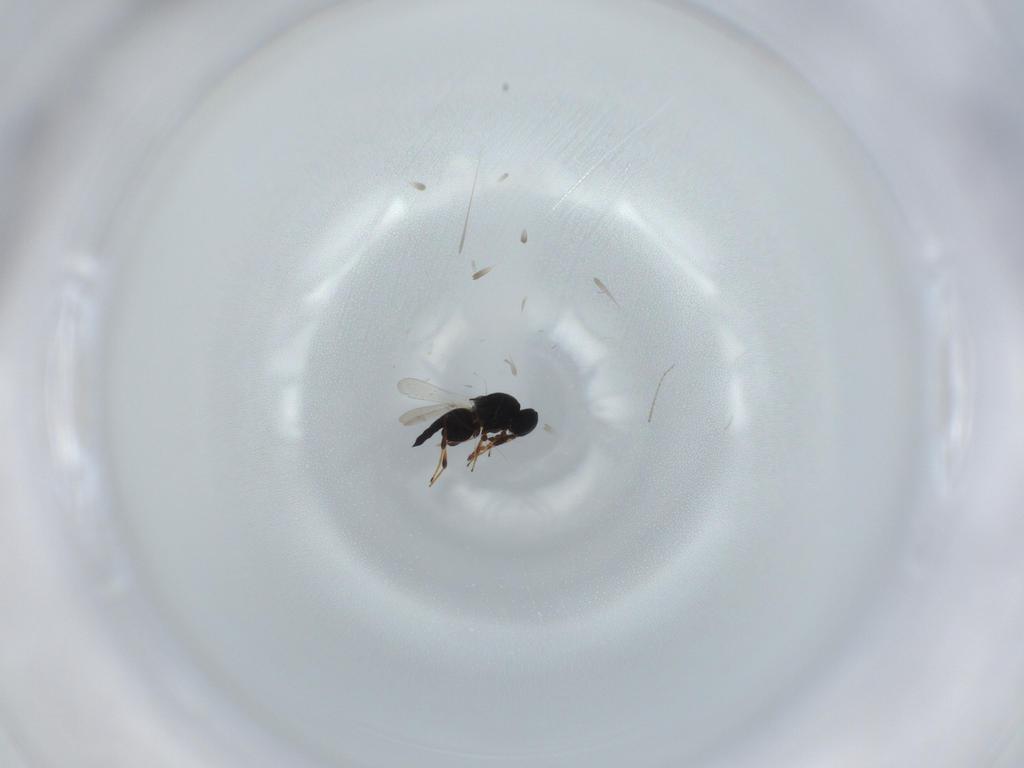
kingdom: Animalia
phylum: Arthropoda
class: Insecta
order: Hymenoptera
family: Platygastridae
